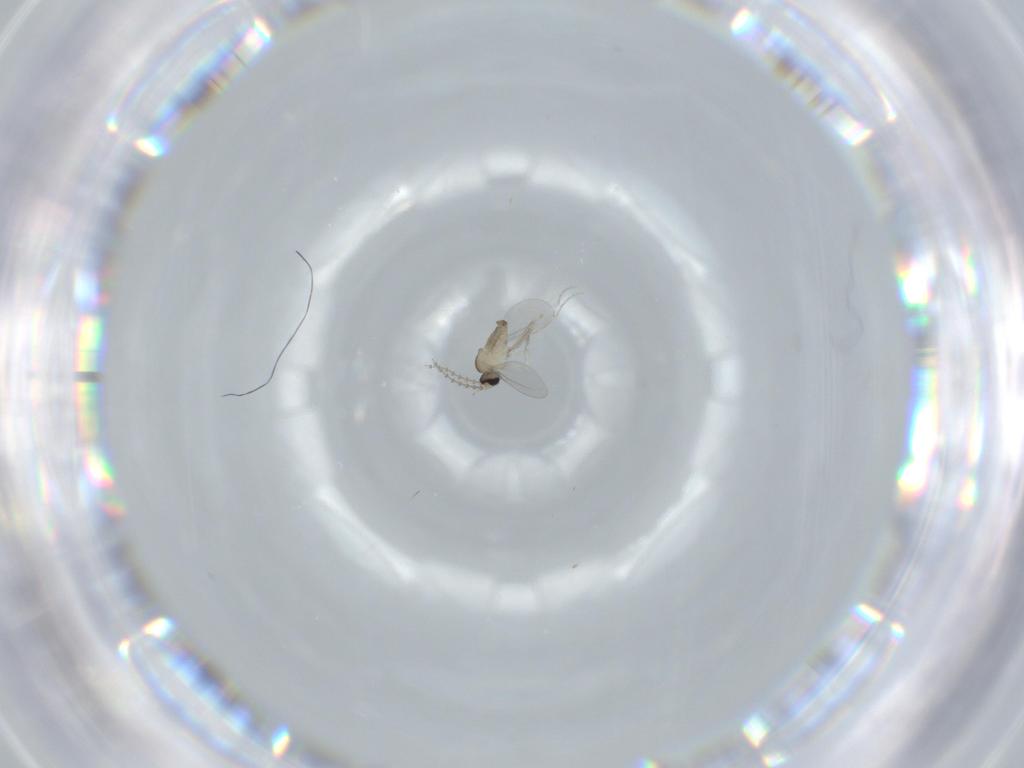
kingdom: Animalia
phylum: Arthropoda
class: Insecta
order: Diptera
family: Cecidomyiidae
